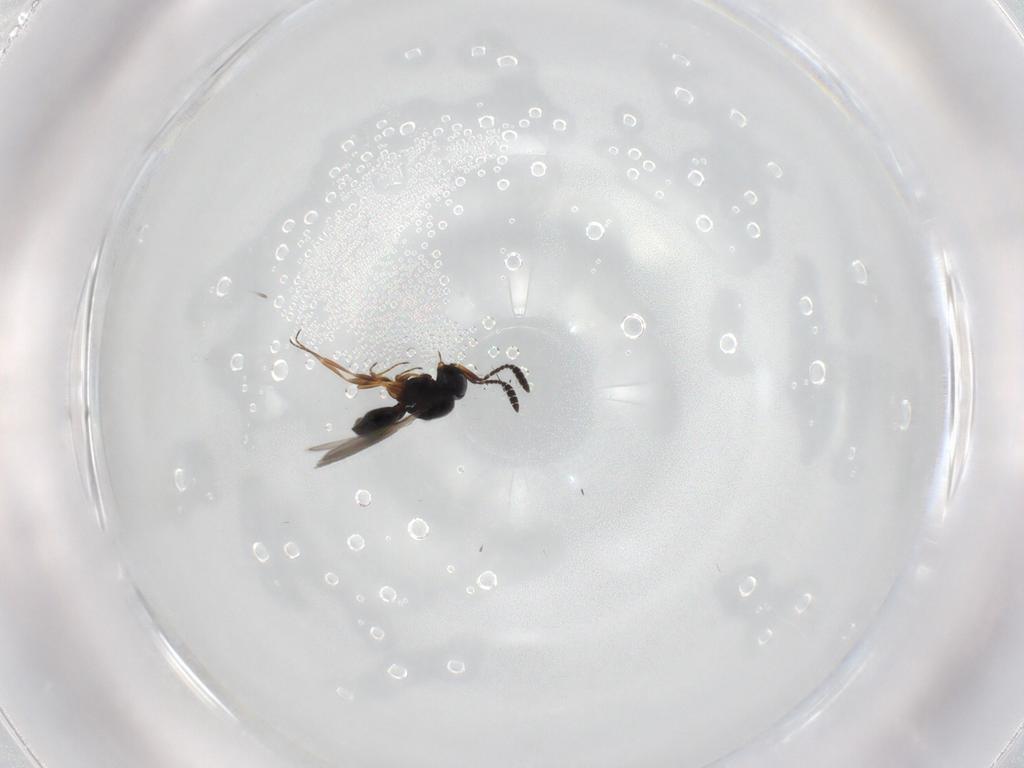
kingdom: Animalia
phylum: Arthropoda
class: Insecta
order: Hymenoptera
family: Scelionidae
